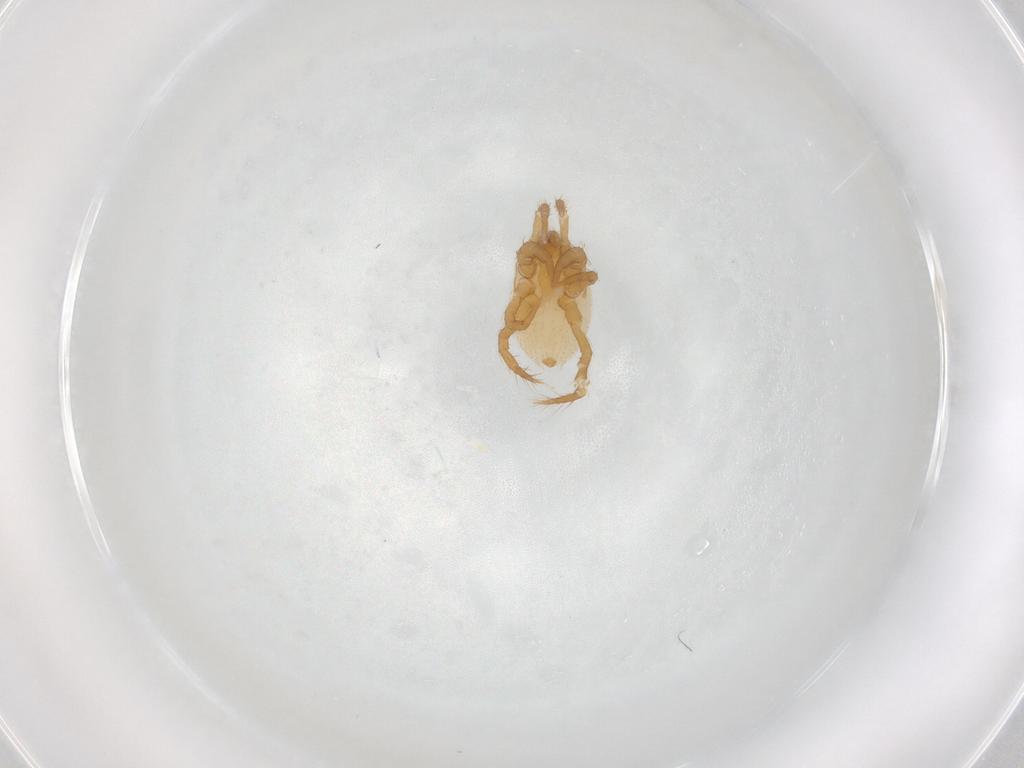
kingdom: Animalia
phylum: Arthropoda
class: Arachnida
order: Mesostigmata
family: Parasitidae
